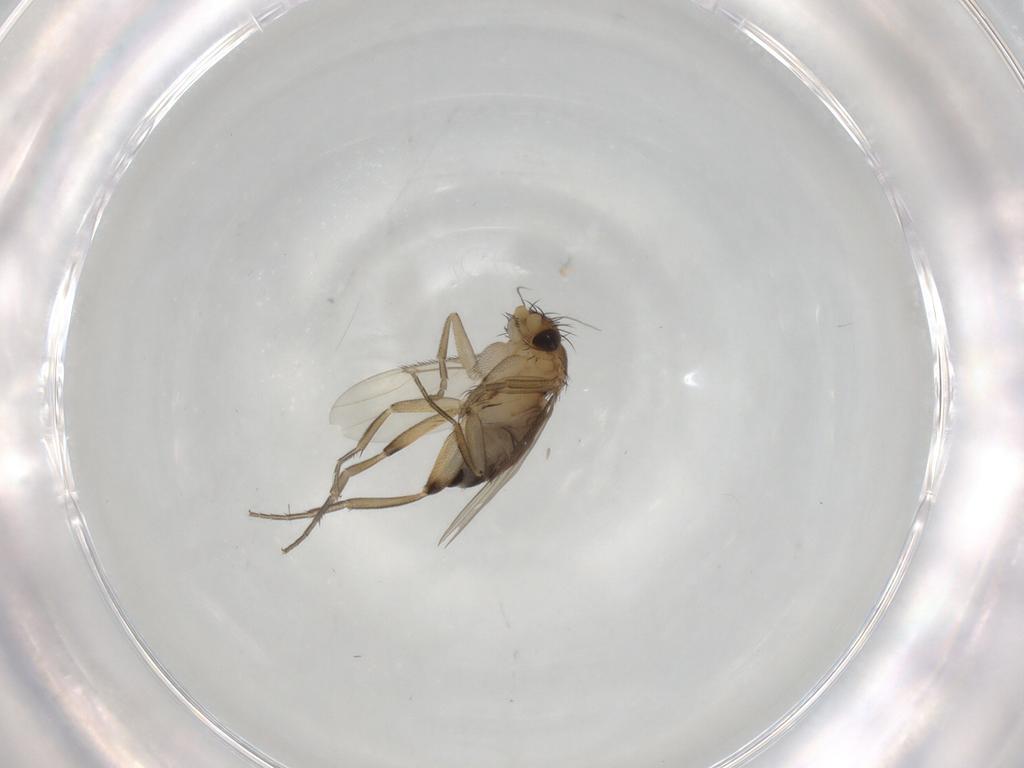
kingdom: Animalia
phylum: Arthropoda
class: Insecta
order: Diptera
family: Phoridae
